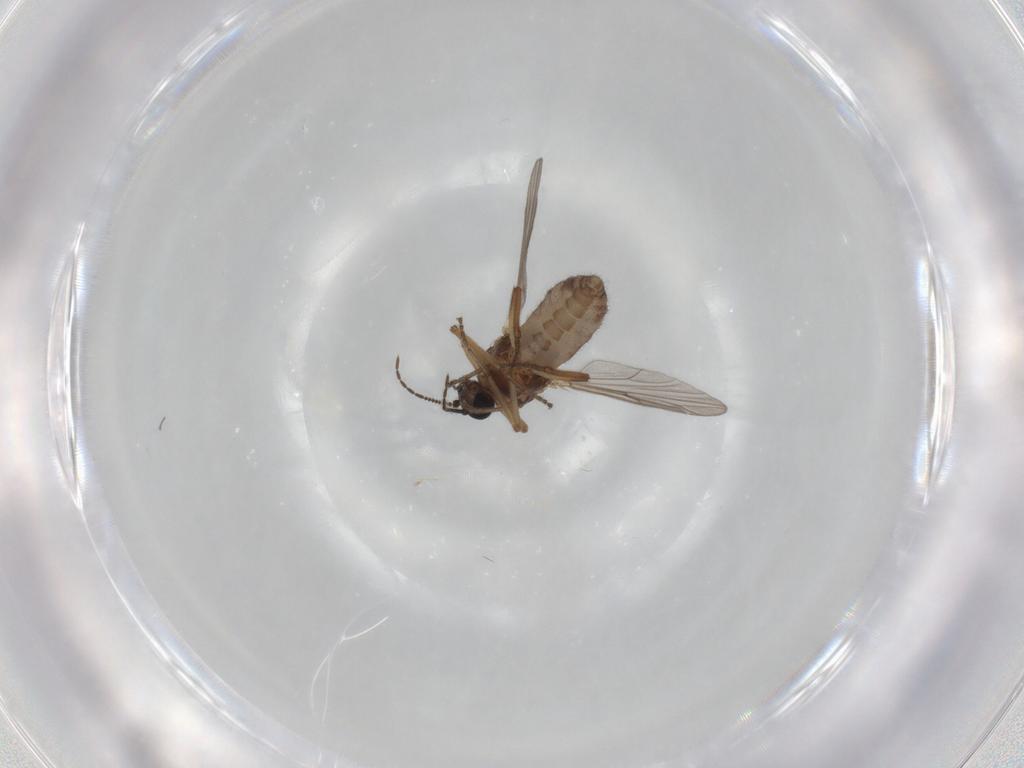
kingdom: Animalia
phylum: Arthropoda
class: Insecta
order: Diptera
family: Ceratopogonidae
